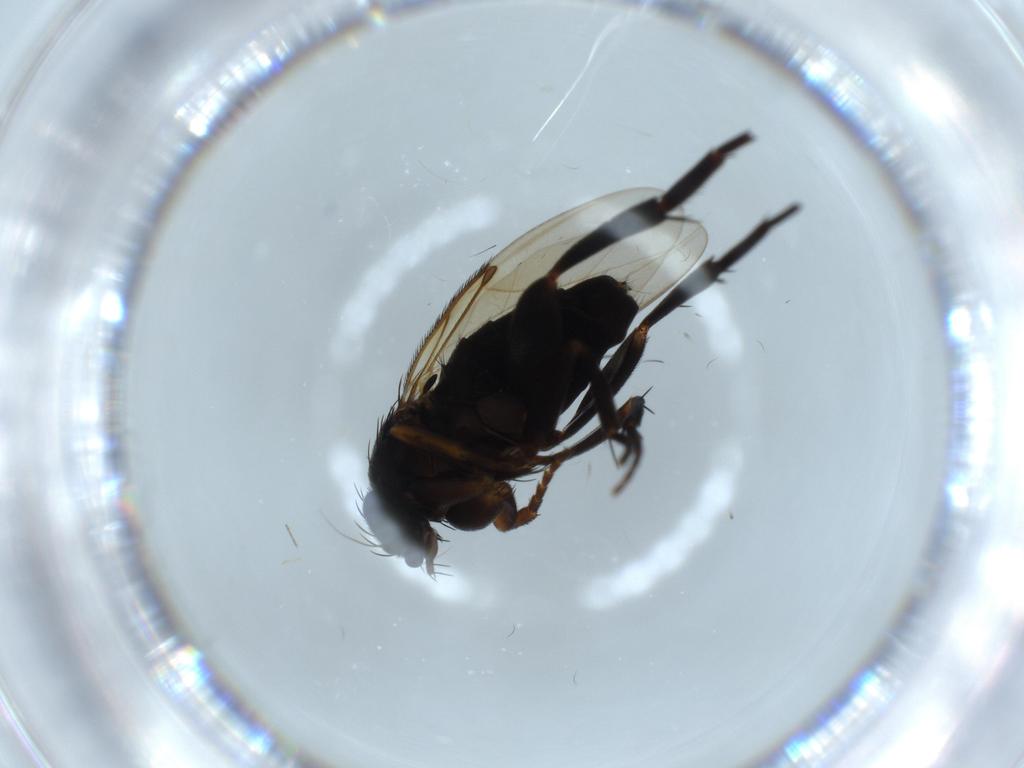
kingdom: Animalia
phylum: Arthropoda
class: Insecta
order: Diptera
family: Phoridae
